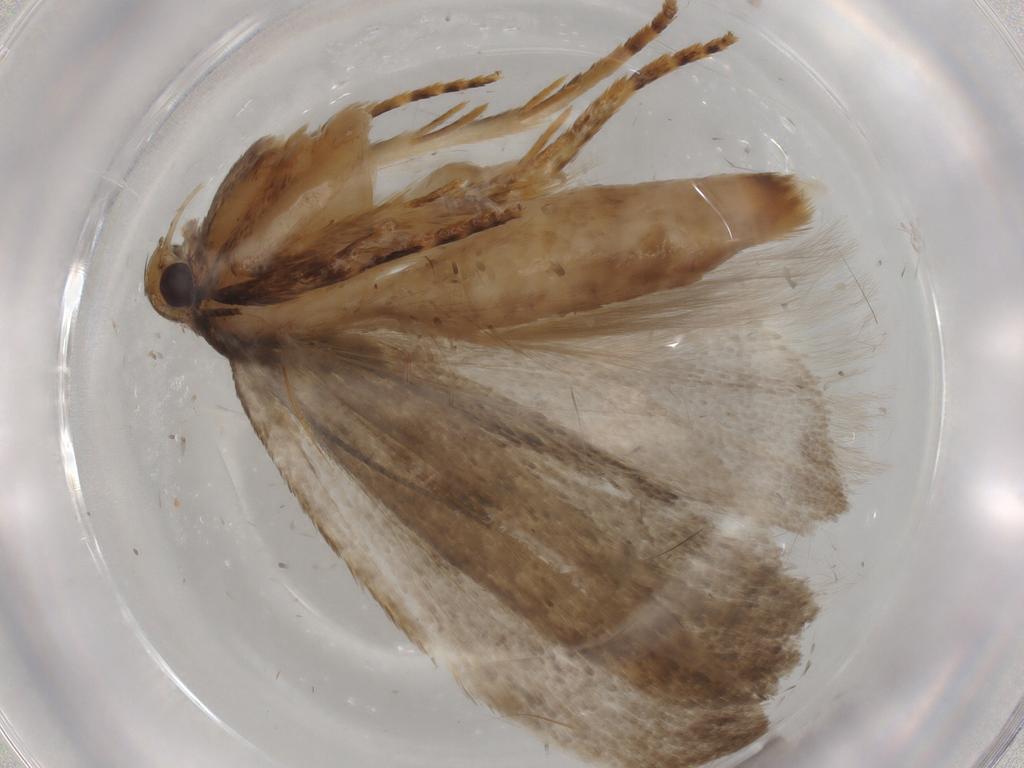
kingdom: Animalia
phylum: Arthropoda
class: Insecta
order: Lepidoptera
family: Gelechiidae
